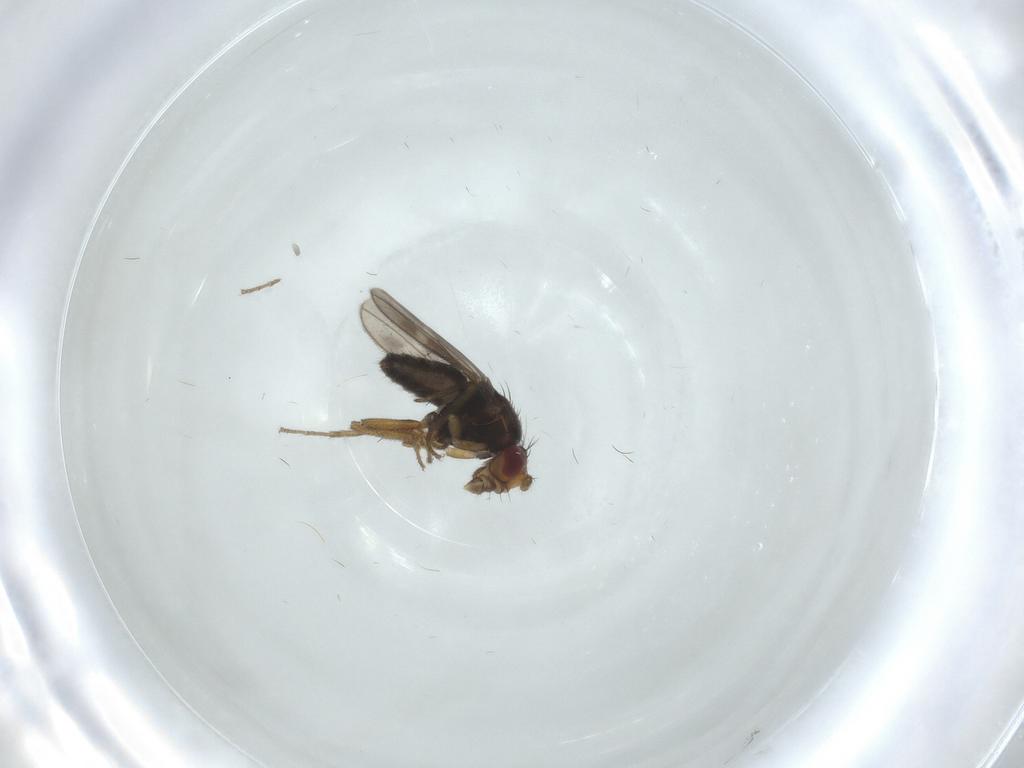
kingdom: Animalia
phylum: Arthropoda
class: Insecta
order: Diptera
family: Sphaeroceridae
